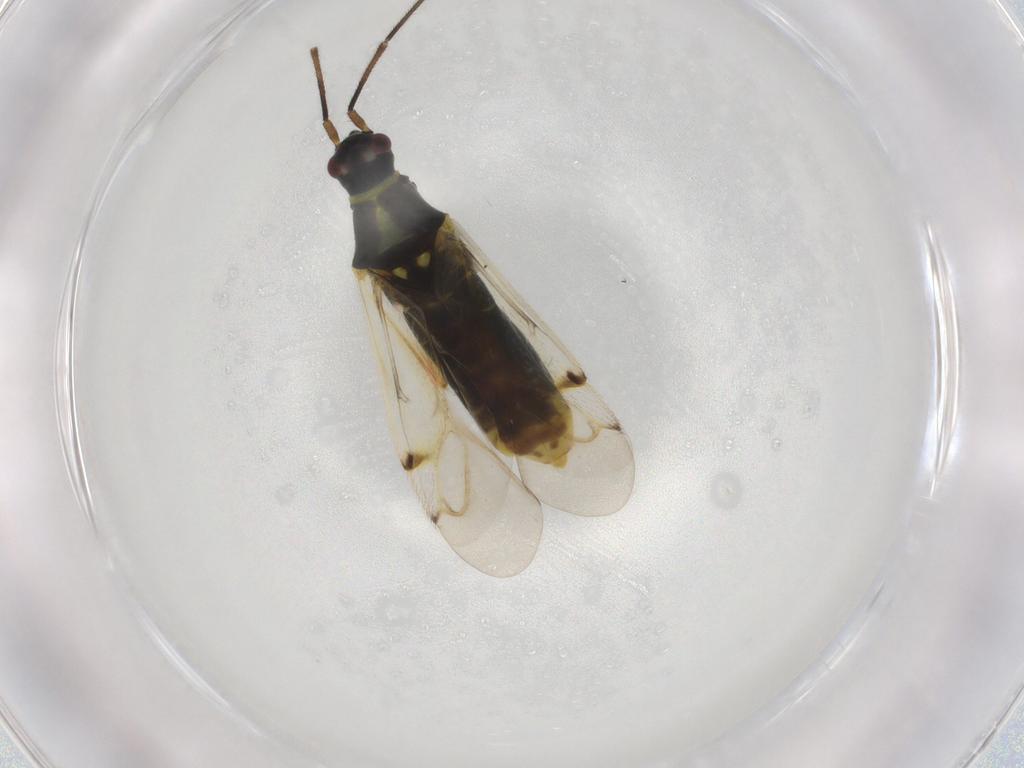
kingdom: Animalia
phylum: Arthropoda
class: Insecta
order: Hemiptera
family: Miridae
